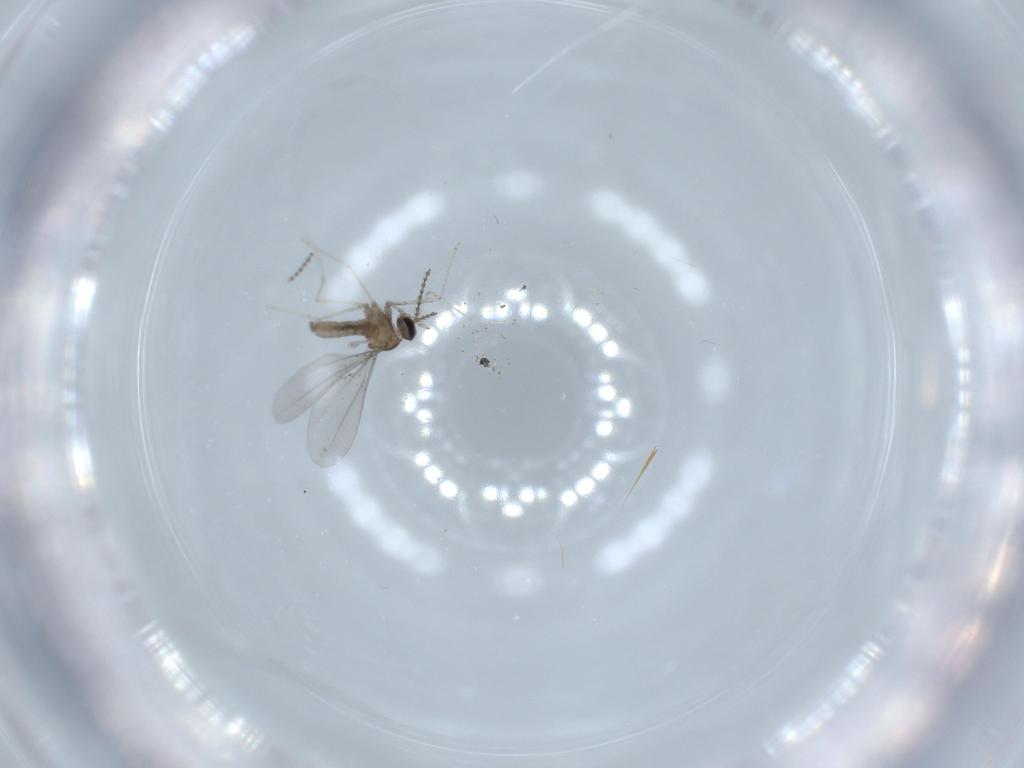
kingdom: Animalia
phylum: Arthropoda
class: Insecta
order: Diptera
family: Cecidomyiidae
